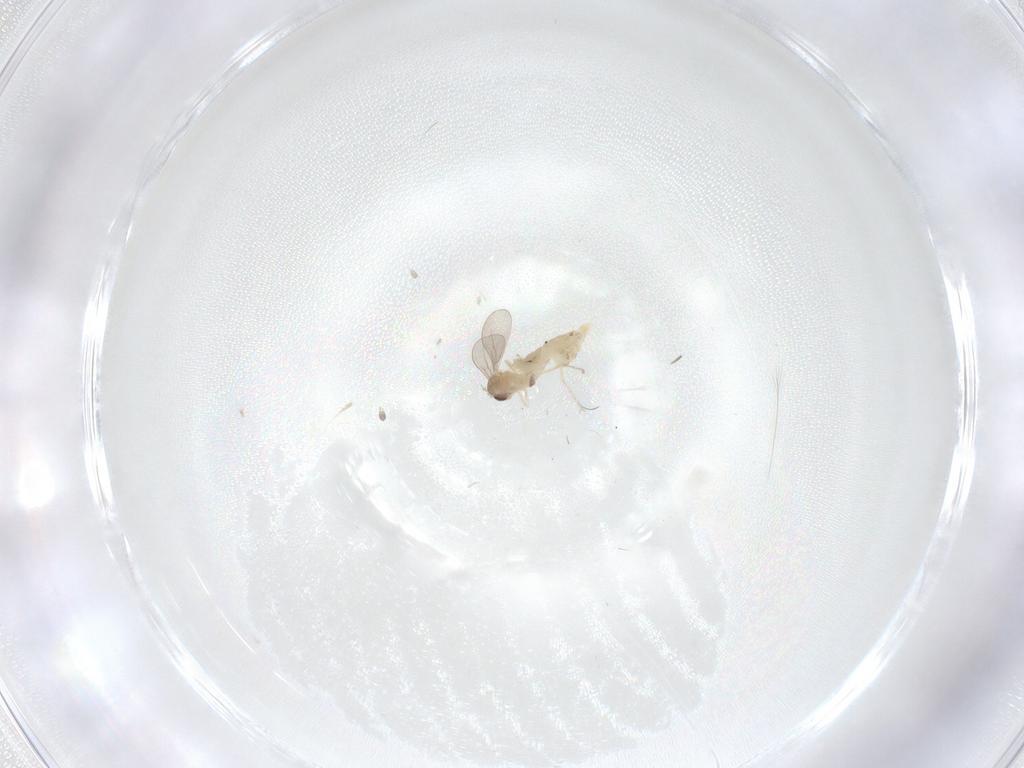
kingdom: Animalia
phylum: Arthropoda
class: Insecta
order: Diptera
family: Cecidomyiidae
